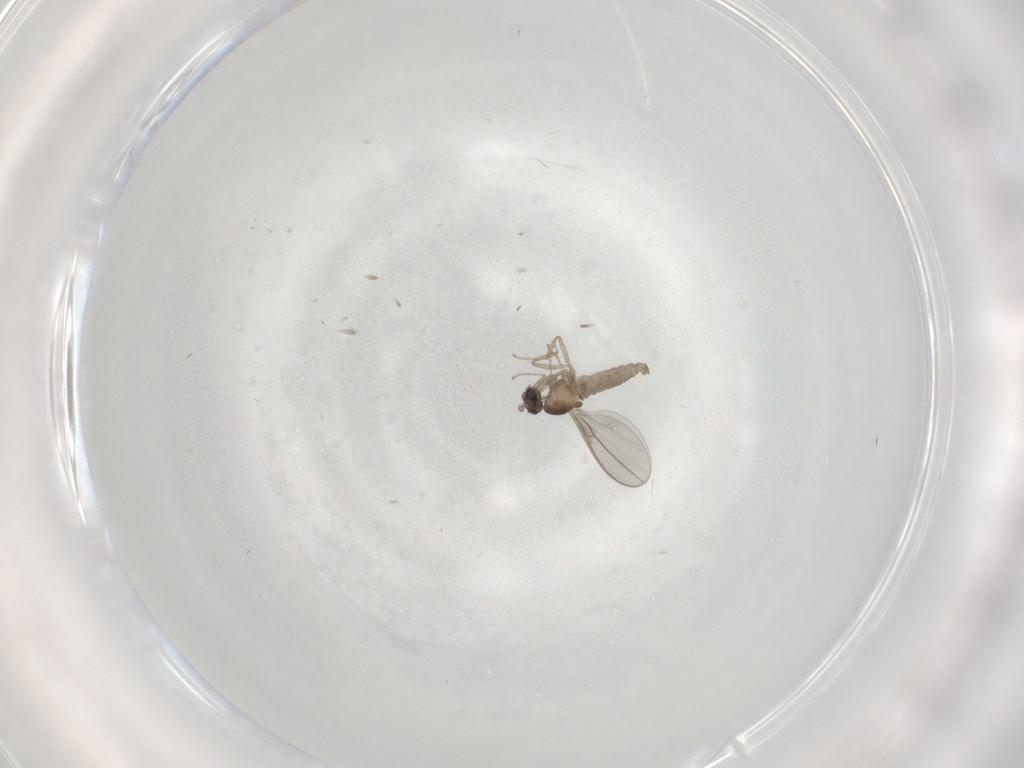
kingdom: Animalia
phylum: Arthropoda
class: Insecta
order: Diptera
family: Cecidomyiidae
